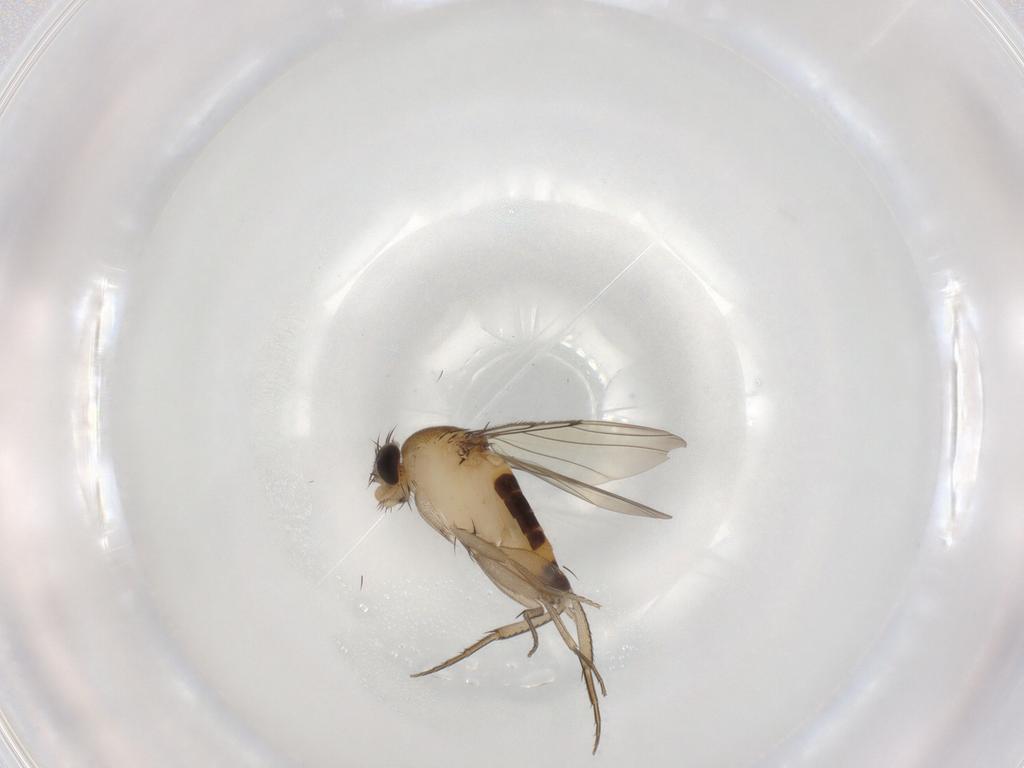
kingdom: Animalia
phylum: Arthropoda
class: Insecta
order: Diptera
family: Phoridae
